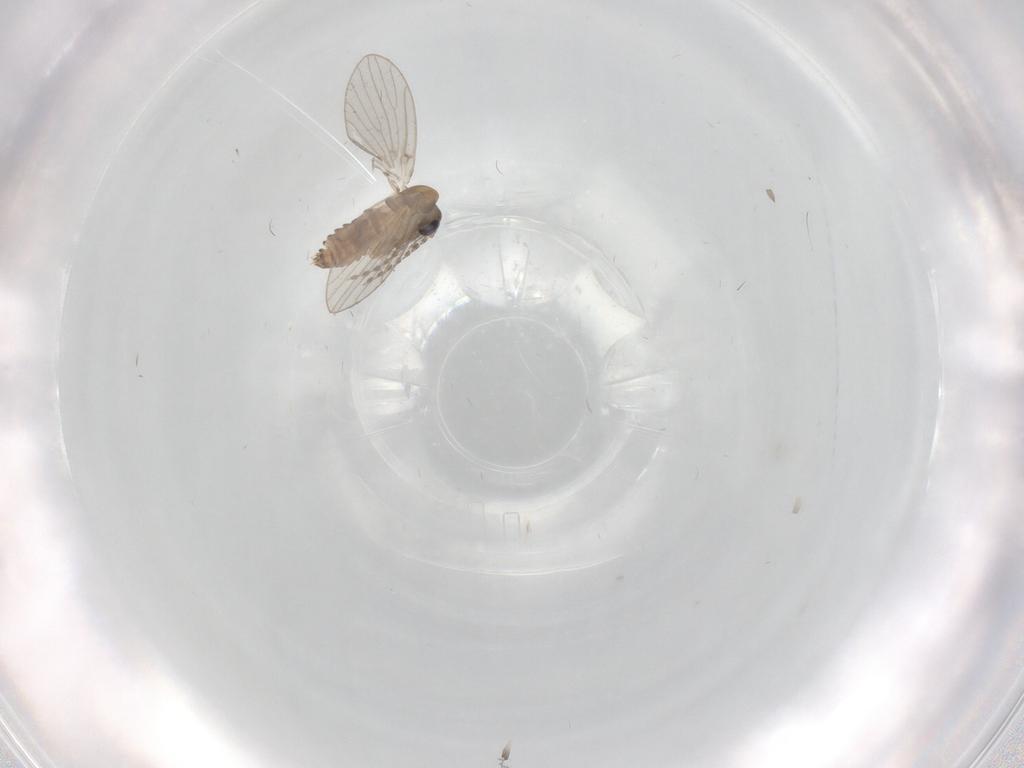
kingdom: Animalia
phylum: Arthropoda
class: Insecta
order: Diptera
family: Psychodidae
